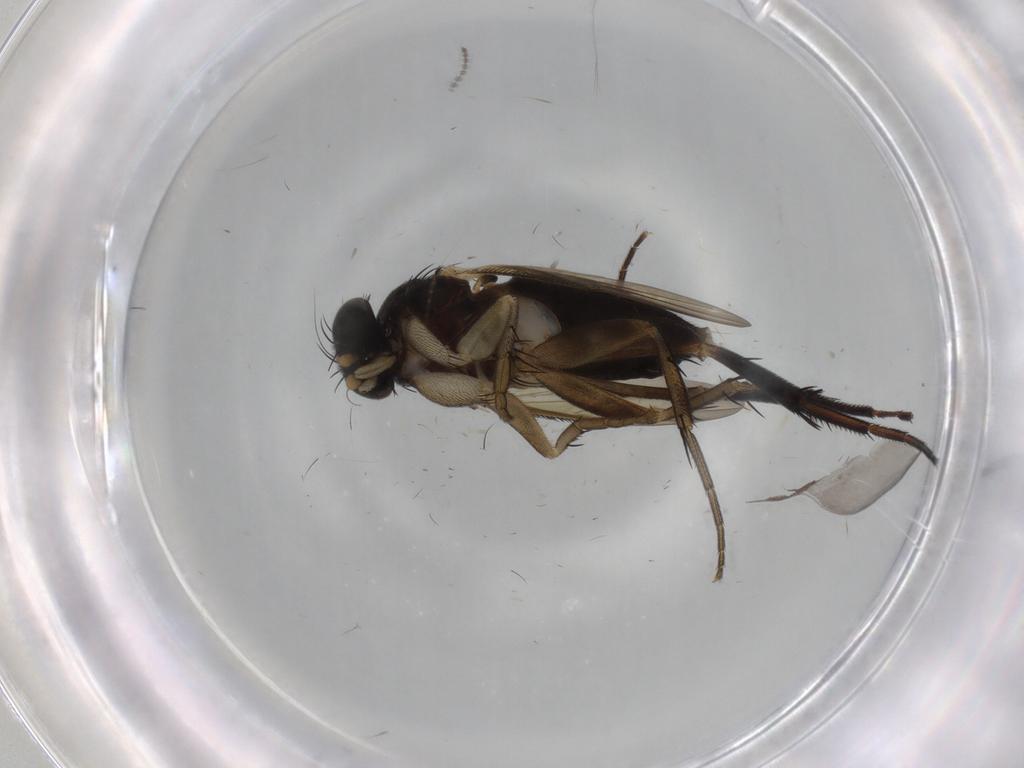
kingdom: Animalia
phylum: Arthropoda
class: Insecta
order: Diptera
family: Phoridae
